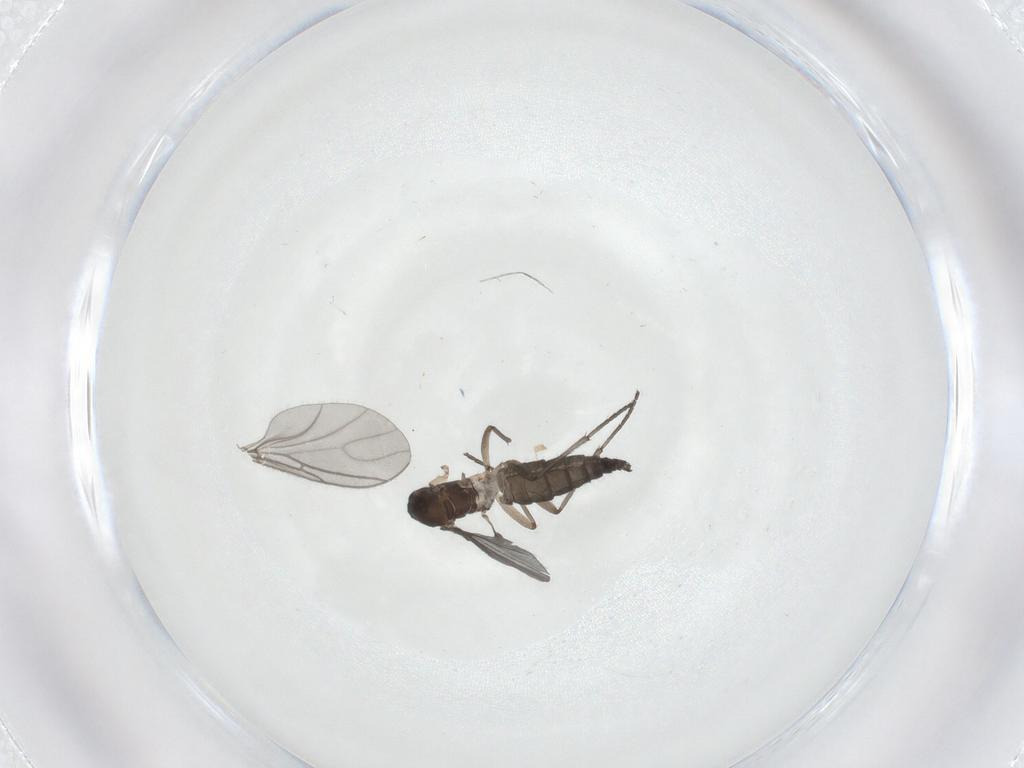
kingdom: Animalia
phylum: Arthropoda
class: Insecta
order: Diptera
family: Sciaridae
